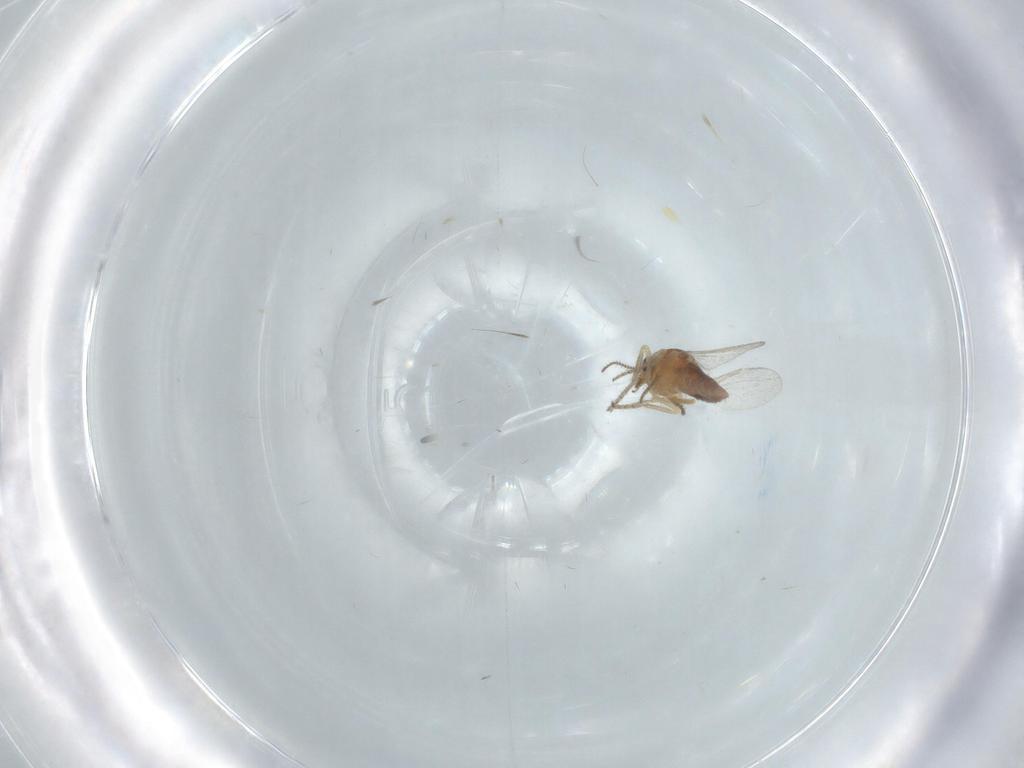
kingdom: Animalia
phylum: Arthropoda
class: Insecta
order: Diptera
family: Ceratopogonidae
